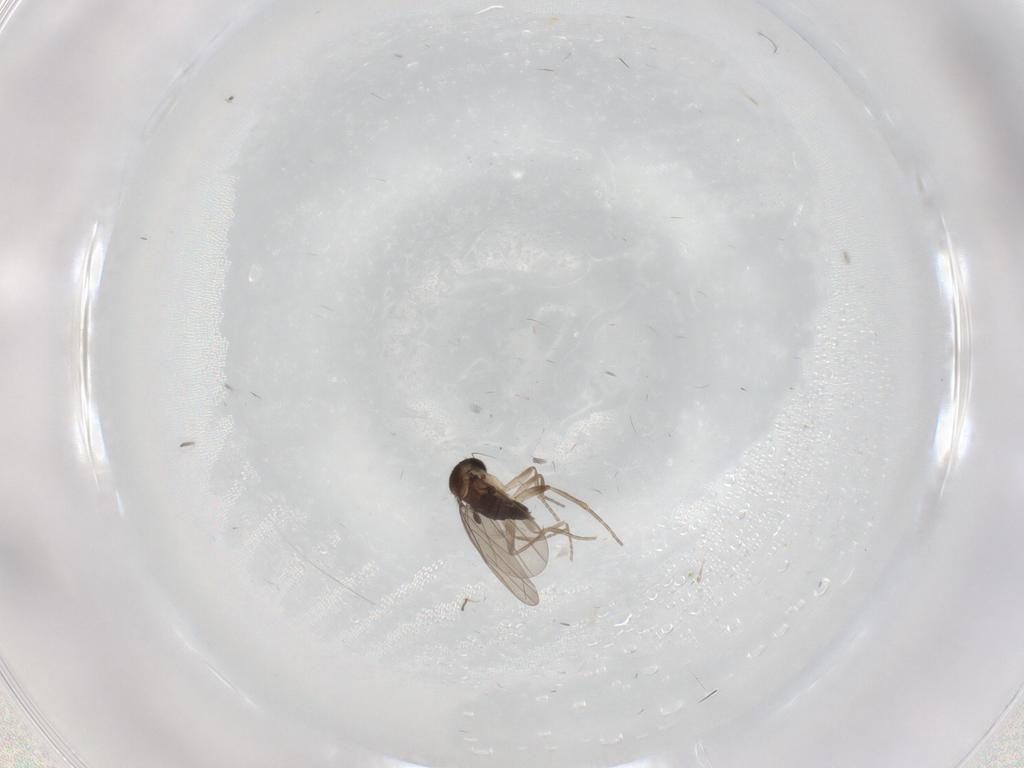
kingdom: Animalia
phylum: Arthropoda
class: Insecta
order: Diptera
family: Phoridae
